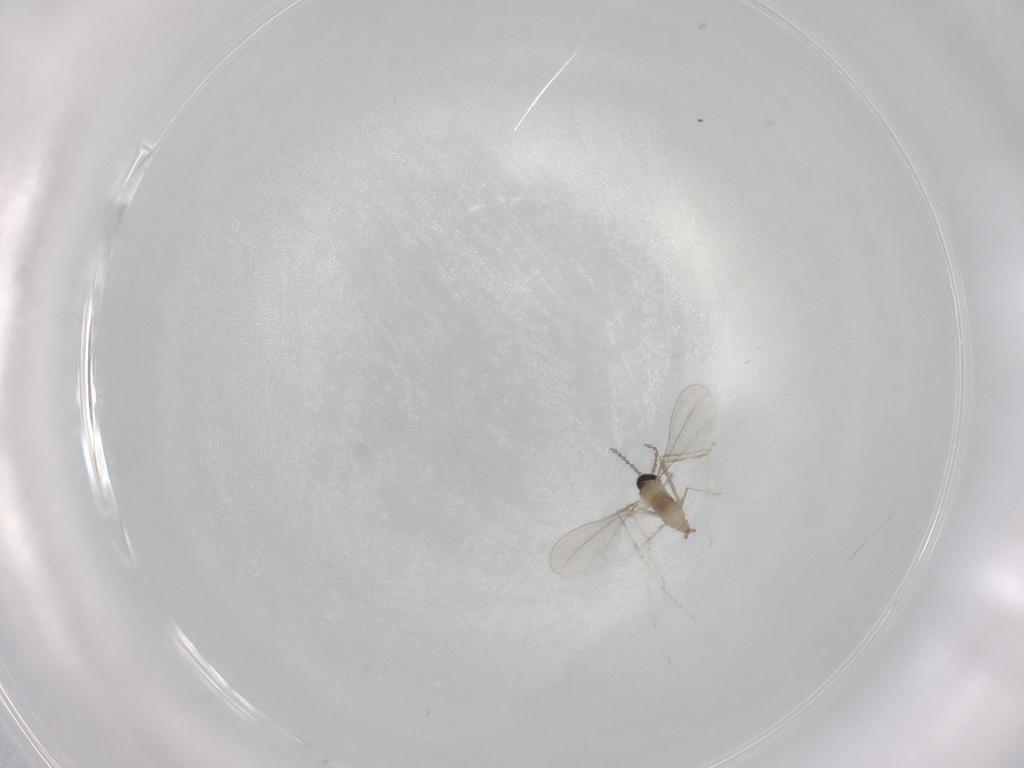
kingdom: Animalia
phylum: Arthropoda
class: Insecta
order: Diptera
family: Cecidomyiidae
